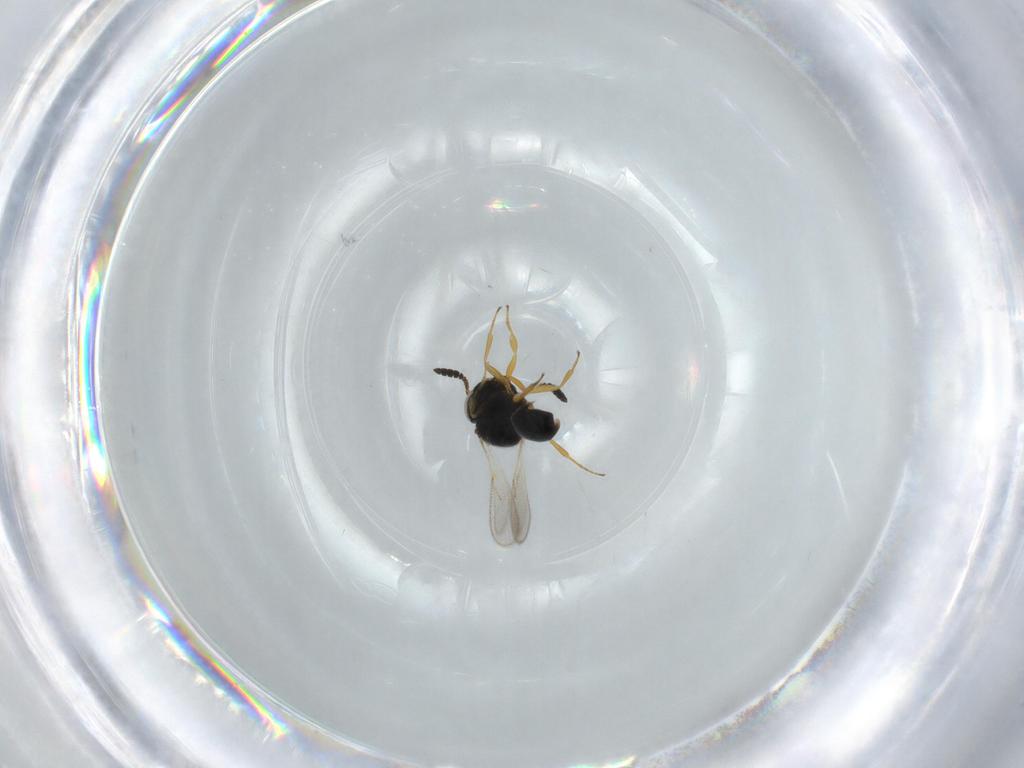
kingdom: Animalia
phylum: Arthropoda
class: Insecta
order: Hymenoptera
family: Scelionidae
